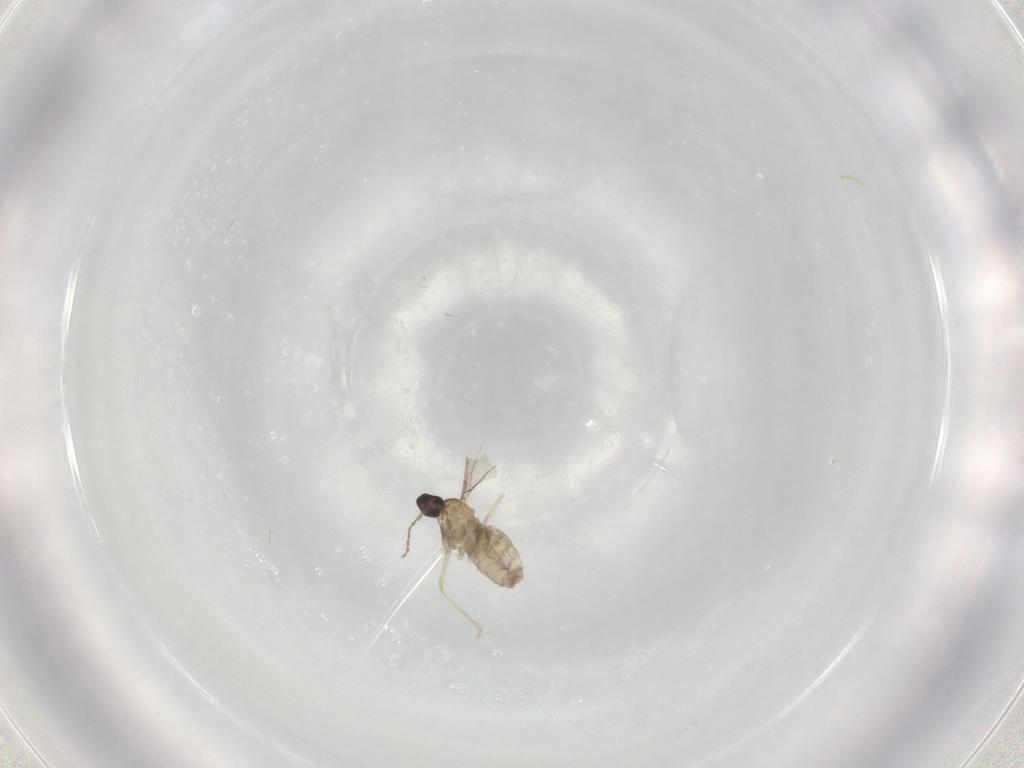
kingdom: Animalia
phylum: Arthropoda
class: Insecta
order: Diptera
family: Cecidomyiidae
